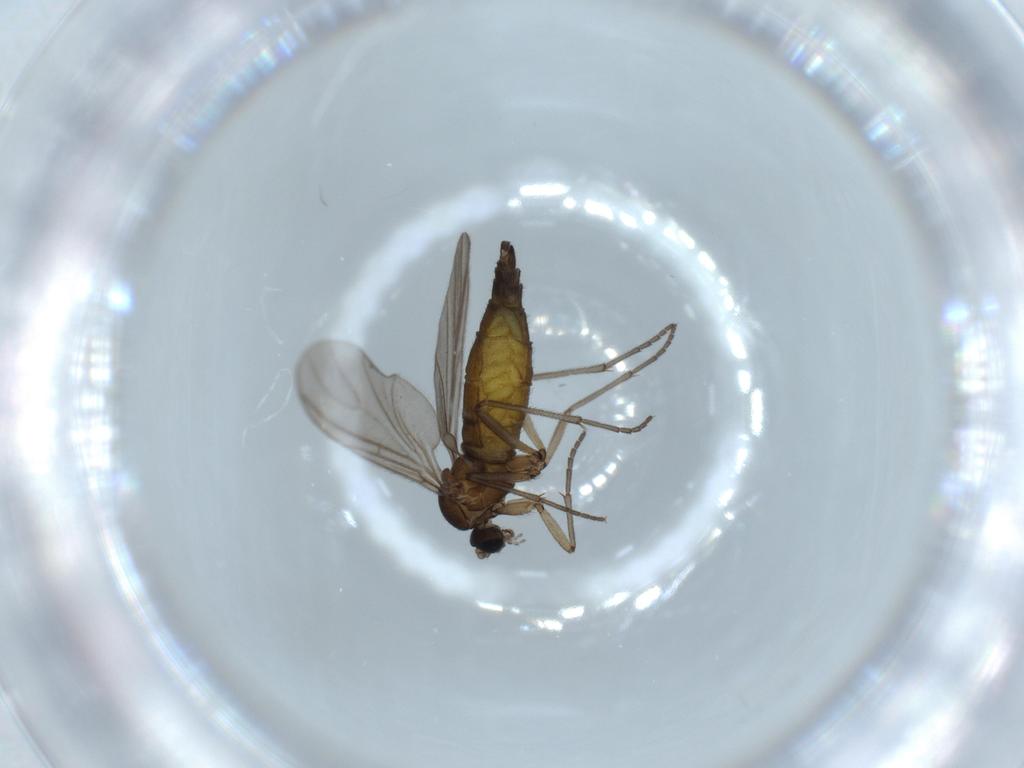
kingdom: Animalia
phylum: Arthropoda
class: Insecta
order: Diptera
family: Sciaridae
